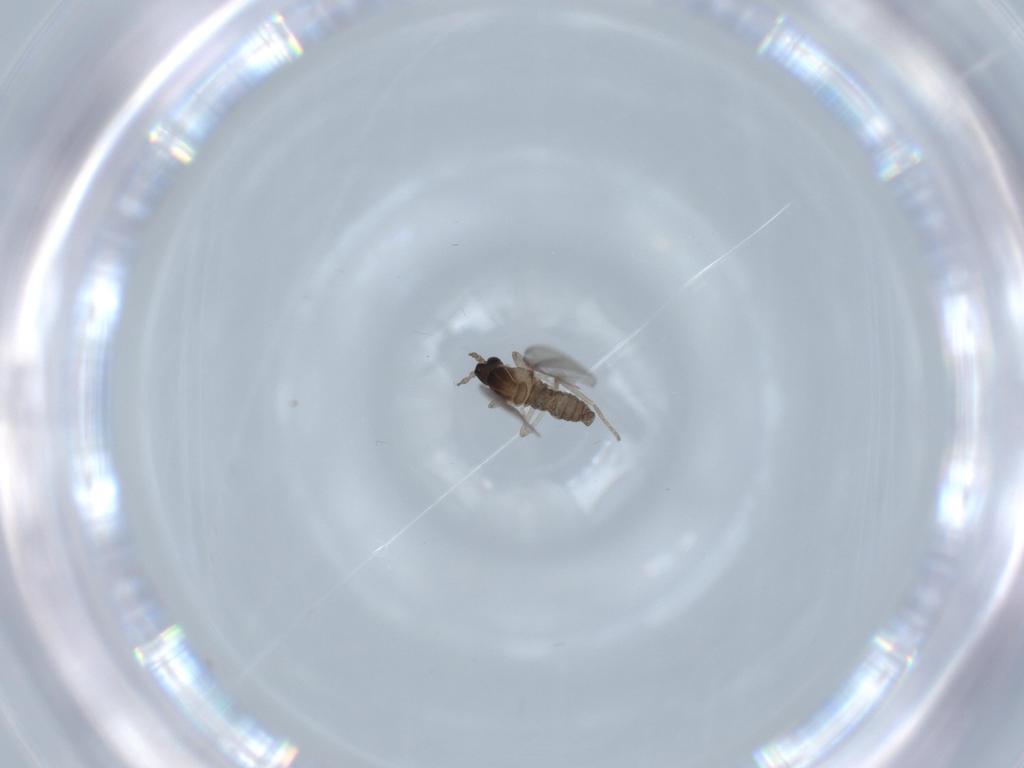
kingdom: Animalia
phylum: Arthropoda
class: Insecta
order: Diptera
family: Cecidomyiidae
